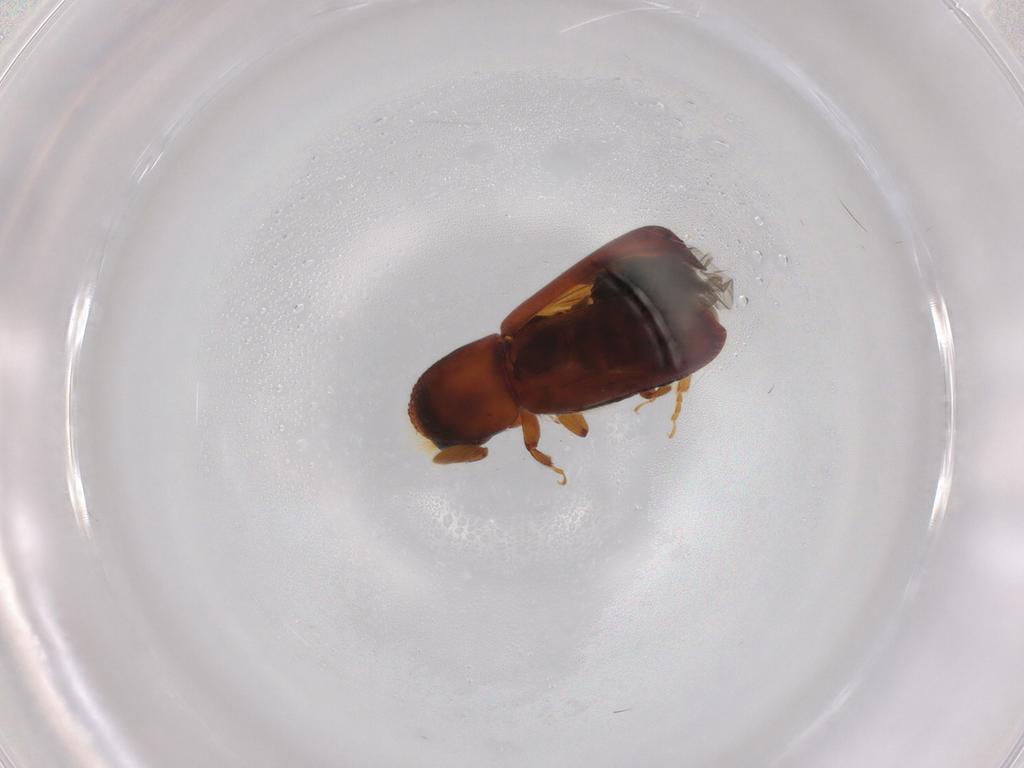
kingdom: Animalia
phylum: Arthropoda
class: Insecta
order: Coleoptera
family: Curculionidae
